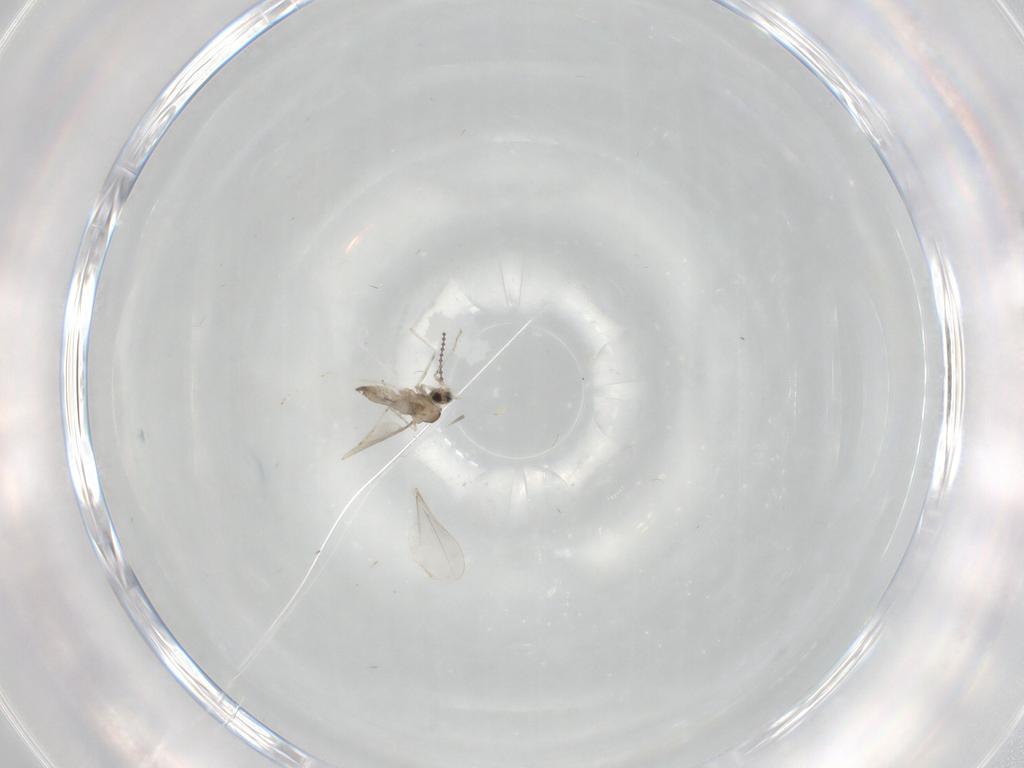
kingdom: Animalia
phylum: Arthropoda
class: Insecta
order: Diptera
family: Cecidomyiidae
